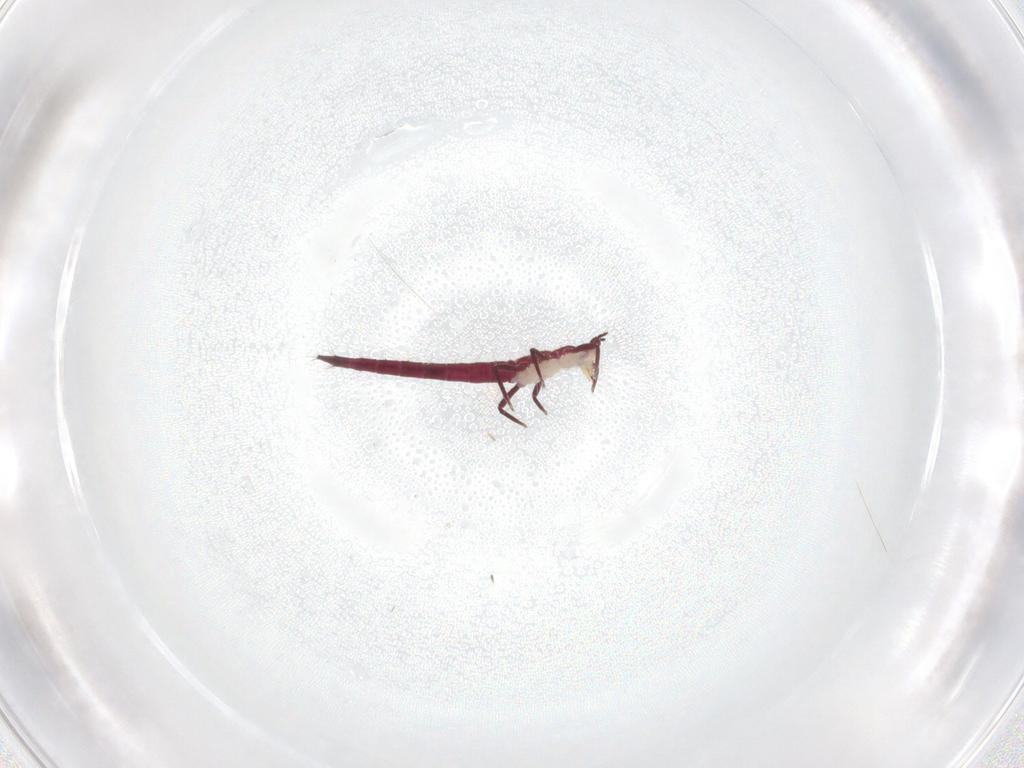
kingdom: Animalia
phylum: Arthropoda
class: Insecta
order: Thysanoptera
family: Phlaeothripidae
